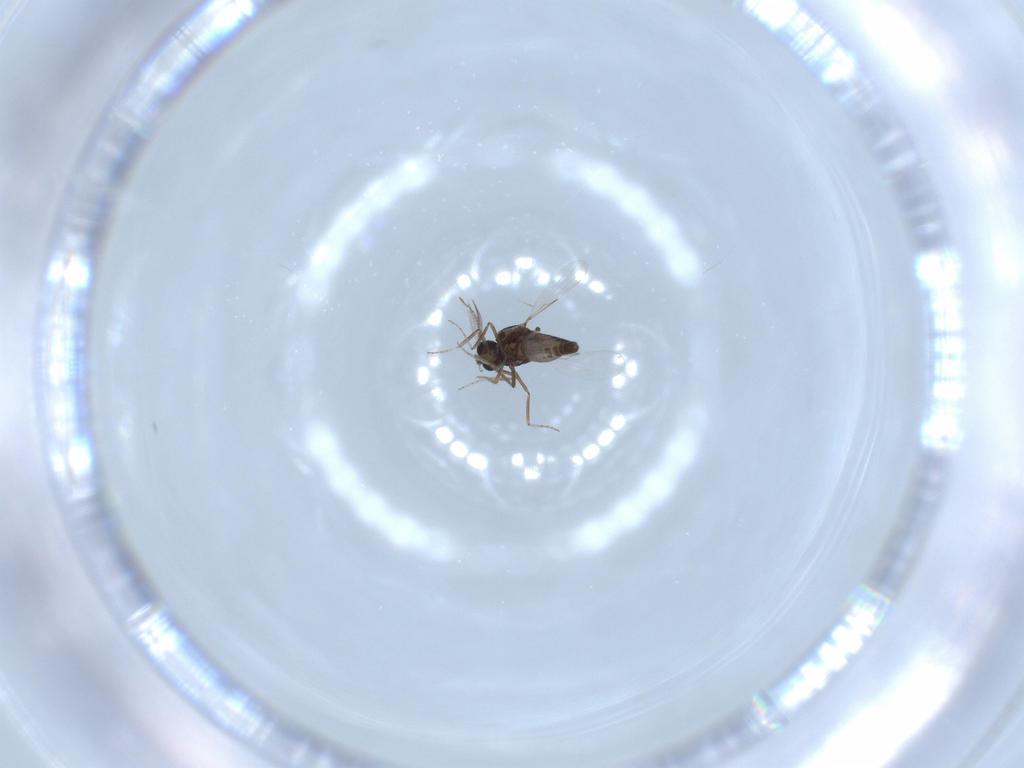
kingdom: Animalia
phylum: Arthropoda
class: Insecta
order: Diptera
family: Ceratopogonidae
